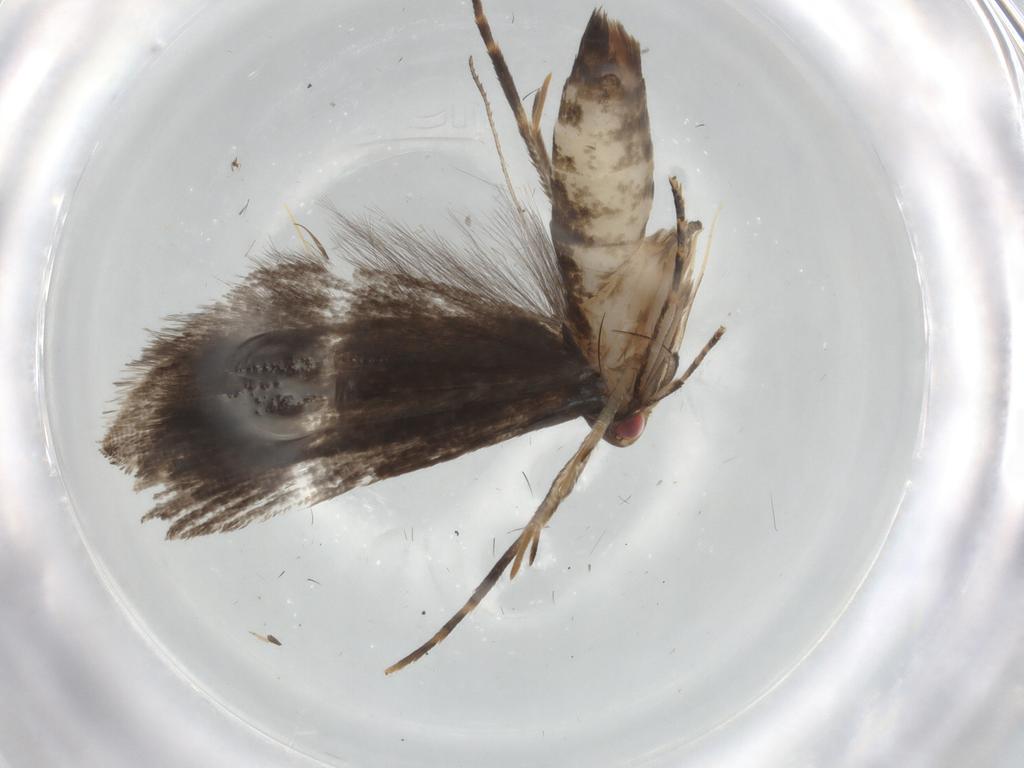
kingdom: Animalia
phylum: Arthropoda
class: Insecta
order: Lepidoptera
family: Gelechiidae
